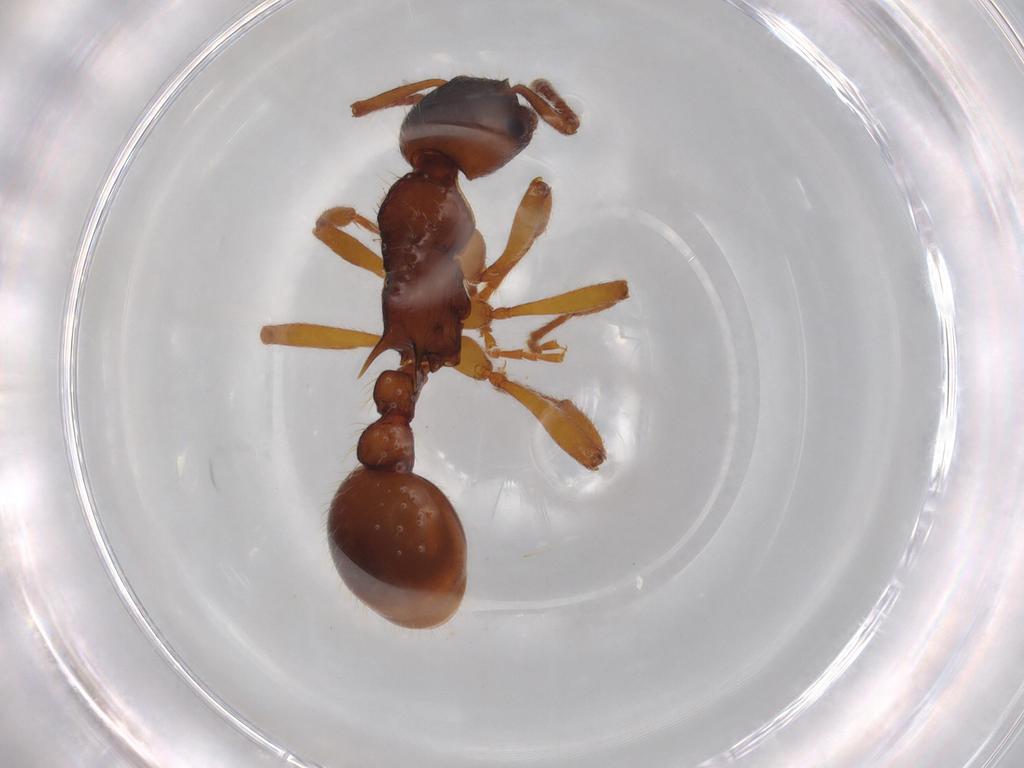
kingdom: Animalia
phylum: Arthropoda
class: Insecta
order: Hymenoptera
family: Formicidae
